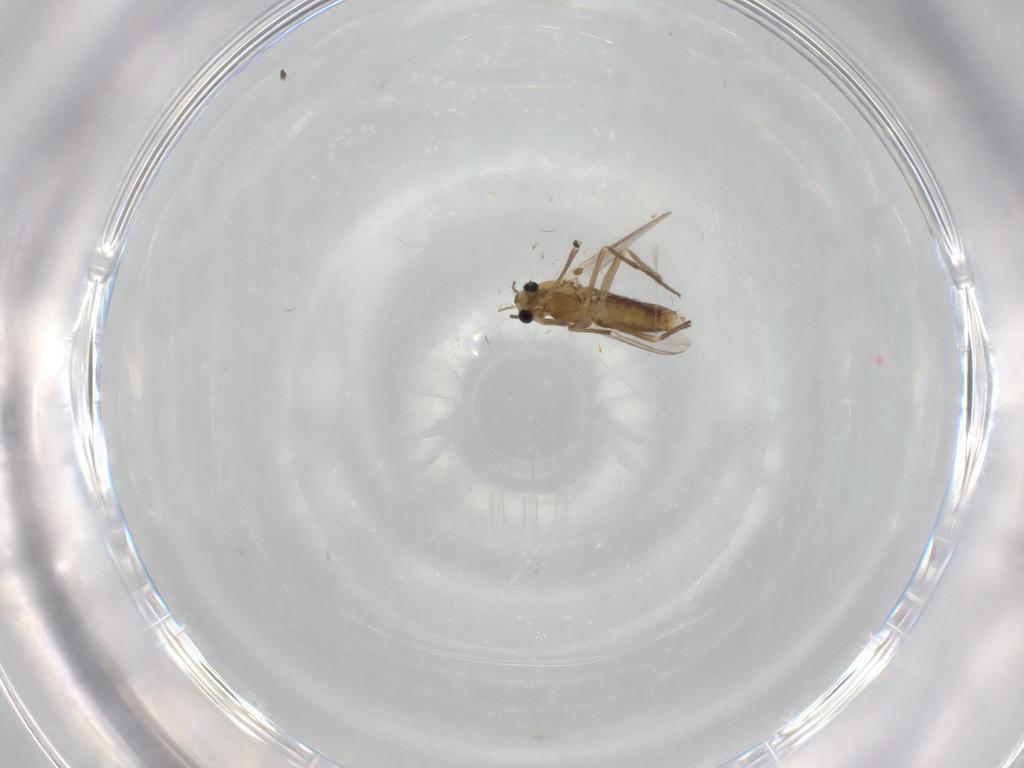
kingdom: Animalia
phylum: Arthropoda
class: Insecta
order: Diptera
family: Chironomidae
